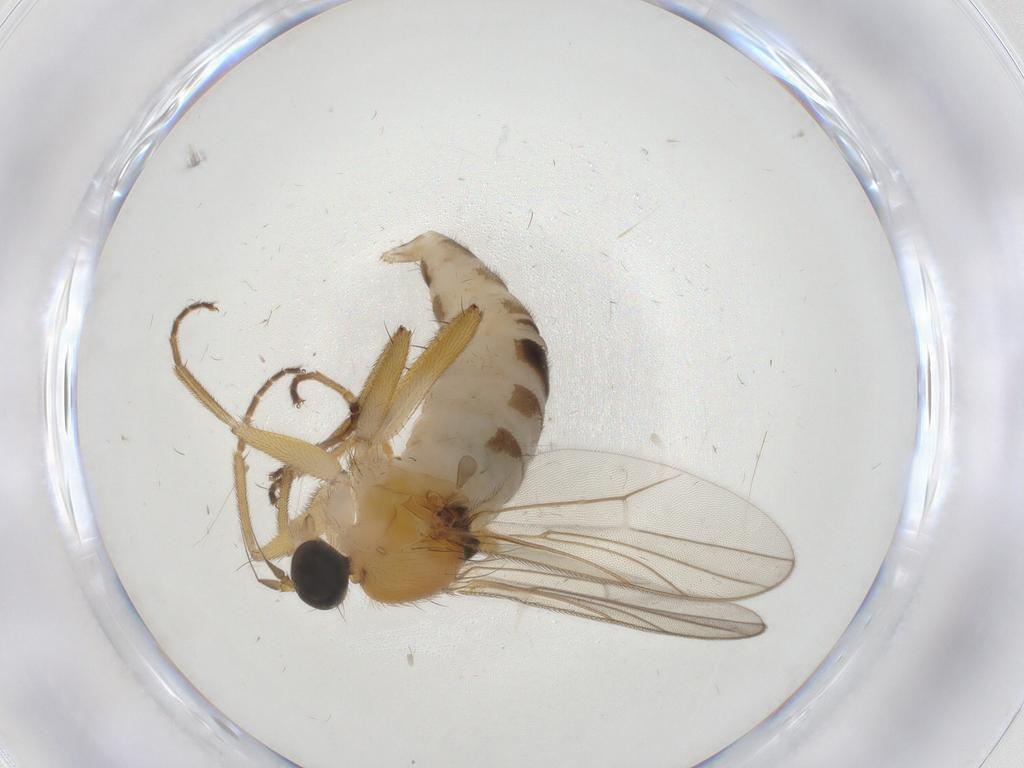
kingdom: Animalia
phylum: Arthropoda
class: Insecta
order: Diptera
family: Hybotidae
